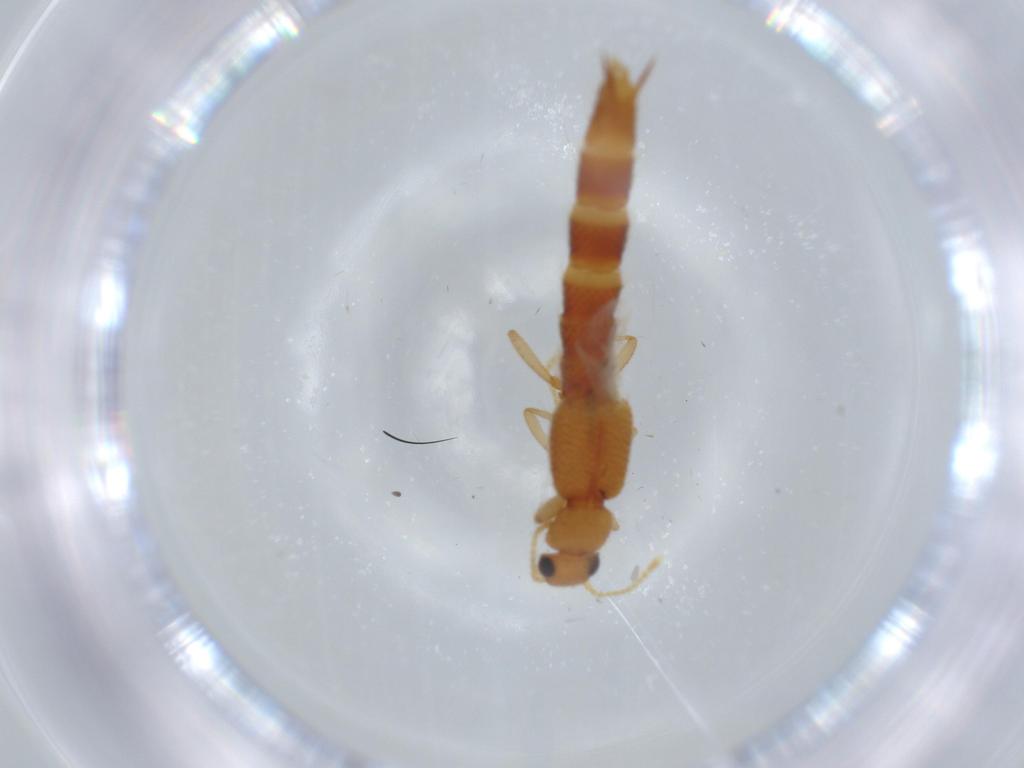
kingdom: Animalia
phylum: Arthropoda
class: Insecta
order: Coleoptera
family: Staphylinidae
